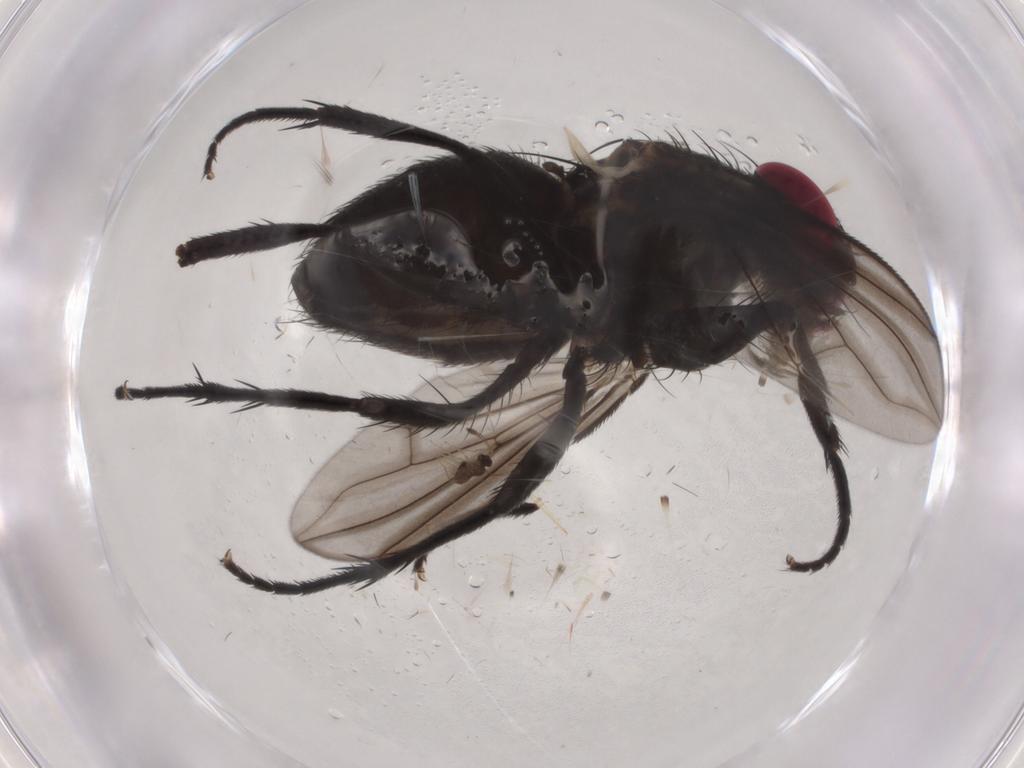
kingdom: Animalia
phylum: Arthropoda
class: Insecta
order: Diptera
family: Calliphoridae
